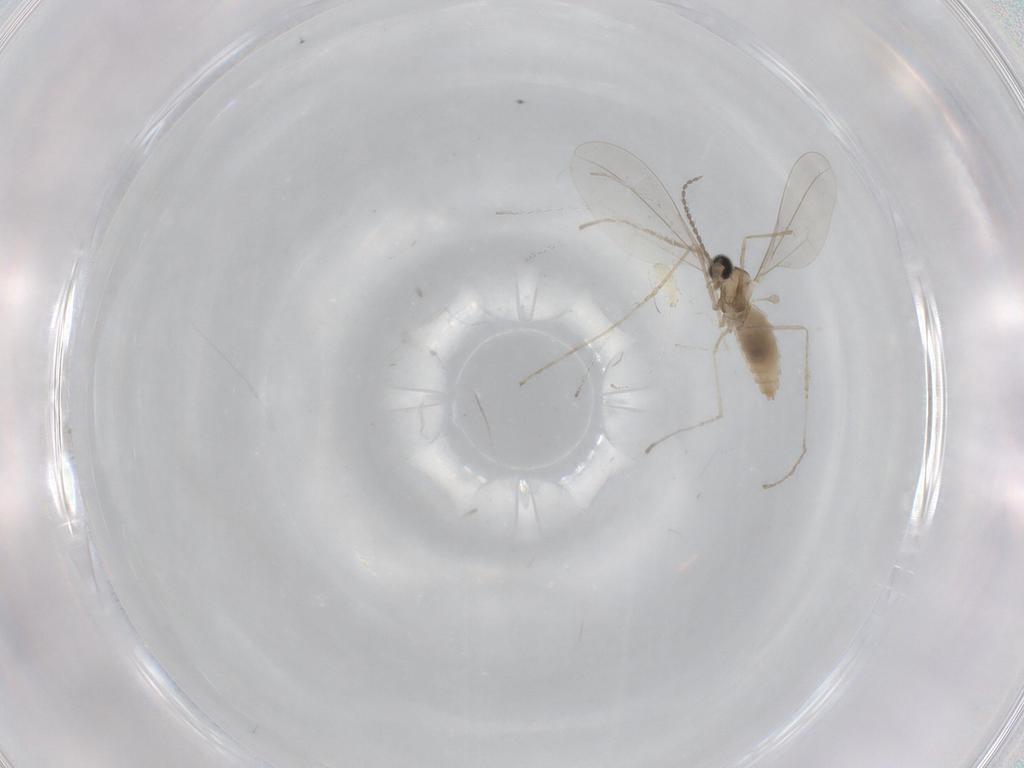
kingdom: Animalia
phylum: Arthropoda
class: Insecta
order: Diptera
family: Cecidomyiidae
